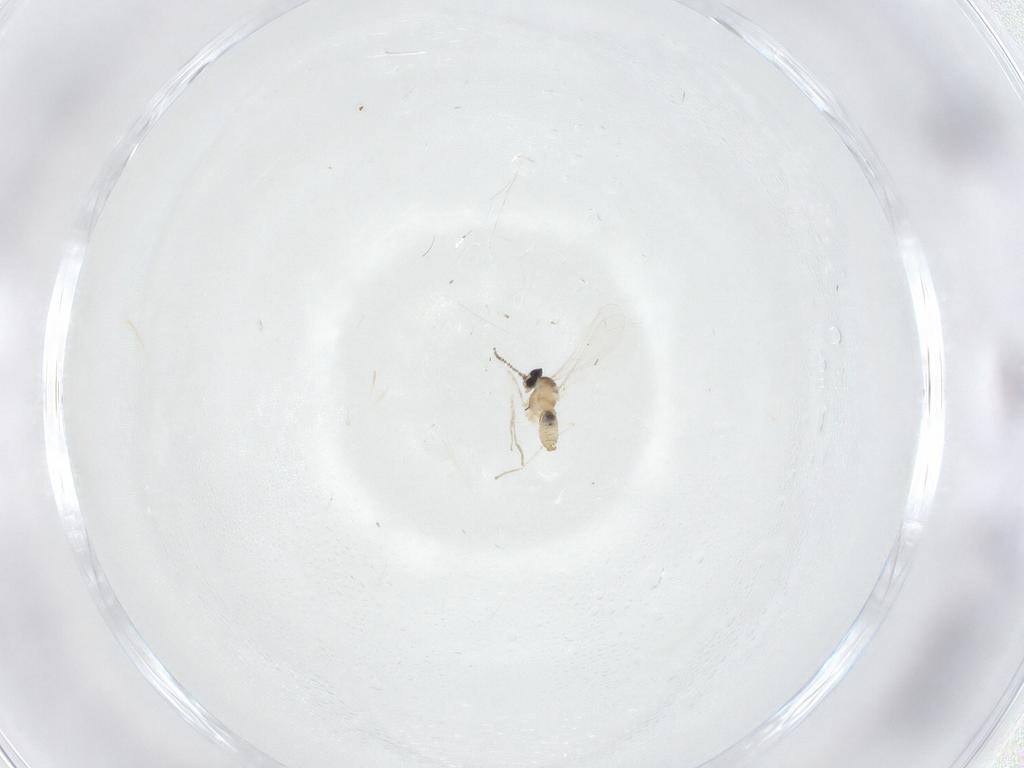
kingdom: Animalia
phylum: Arthropoda
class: Insecta
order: Diptera
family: Cecidomyiidae
